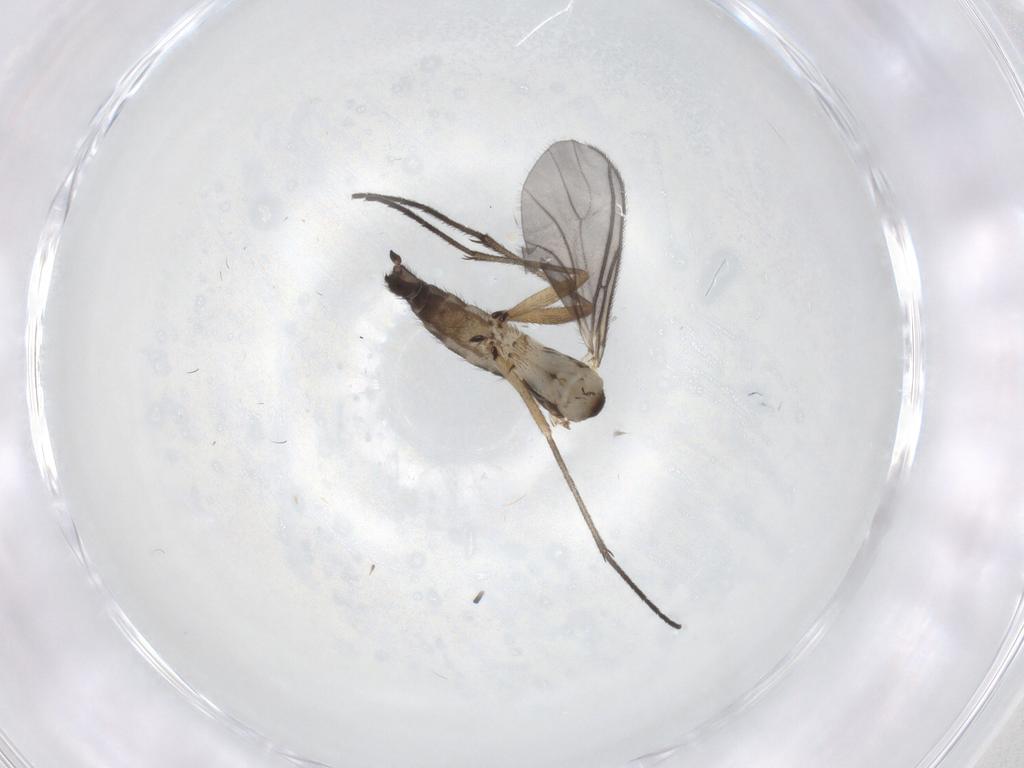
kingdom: Animalia
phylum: Arthropoda
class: Insecta
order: Diptera
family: Sciaridae
